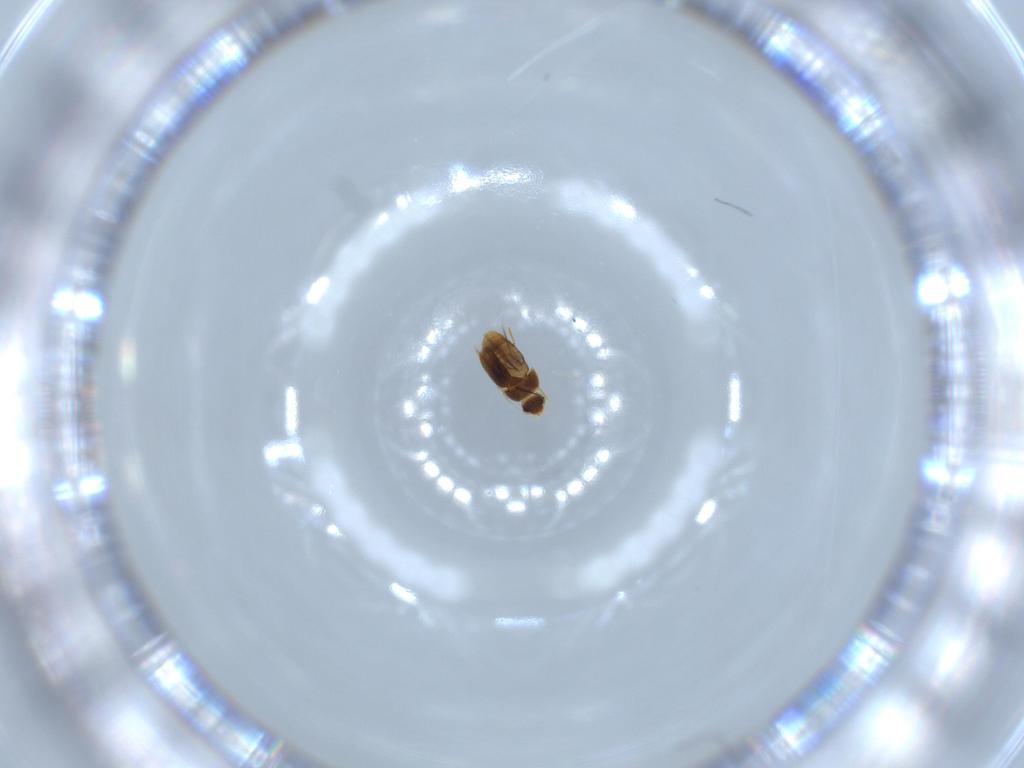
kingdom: Animalia
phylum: Arthropoda
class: Insecta
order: Coleoptera
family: Ptiliidae
